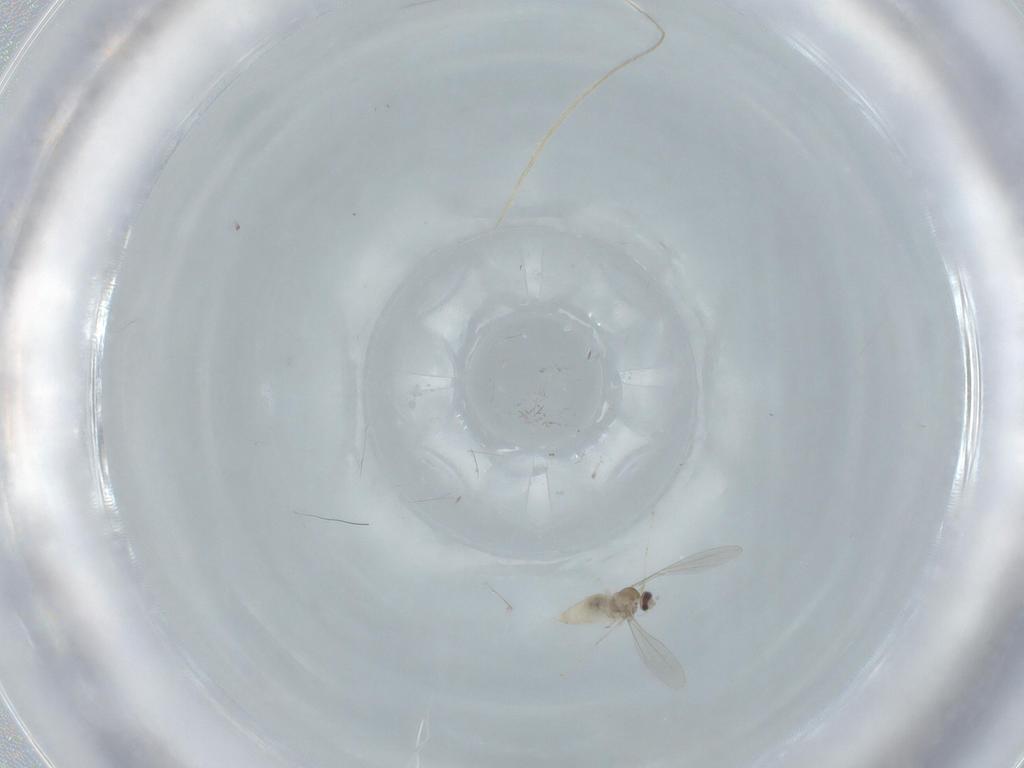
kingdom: Animalia
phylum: Arthropoda
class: Insecta
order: Diptera
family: Cecidomyiidae
